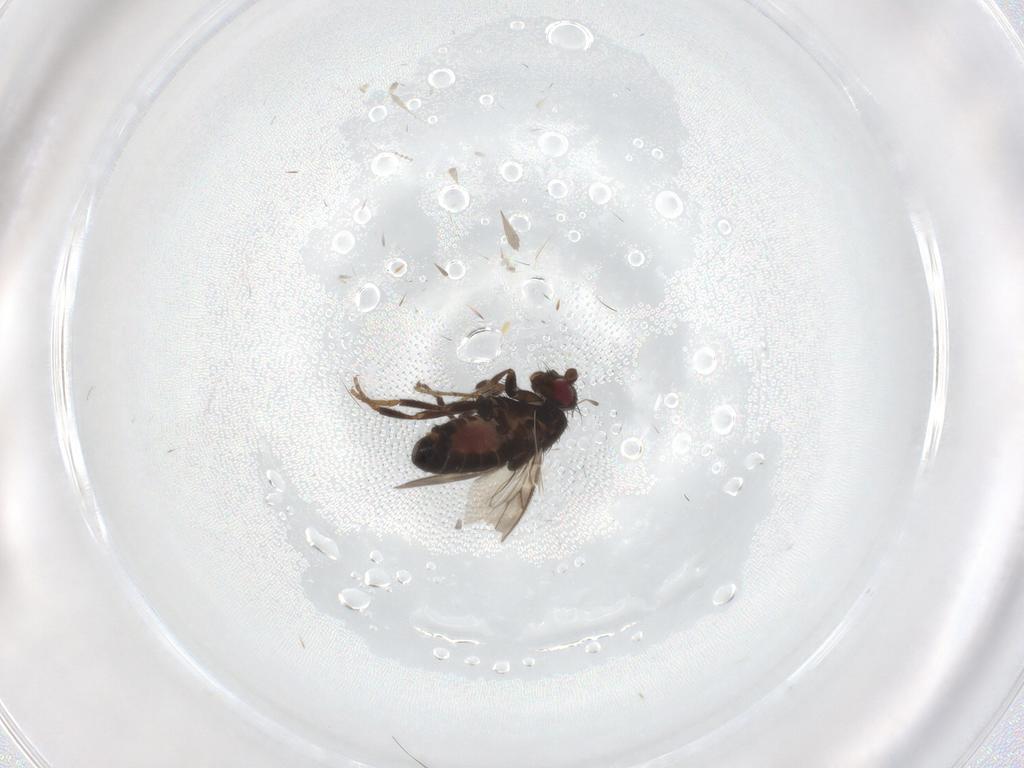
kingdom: Animalia
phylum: Arthropoda
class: Insecta
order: Diptera
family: Sphaeroceridae
